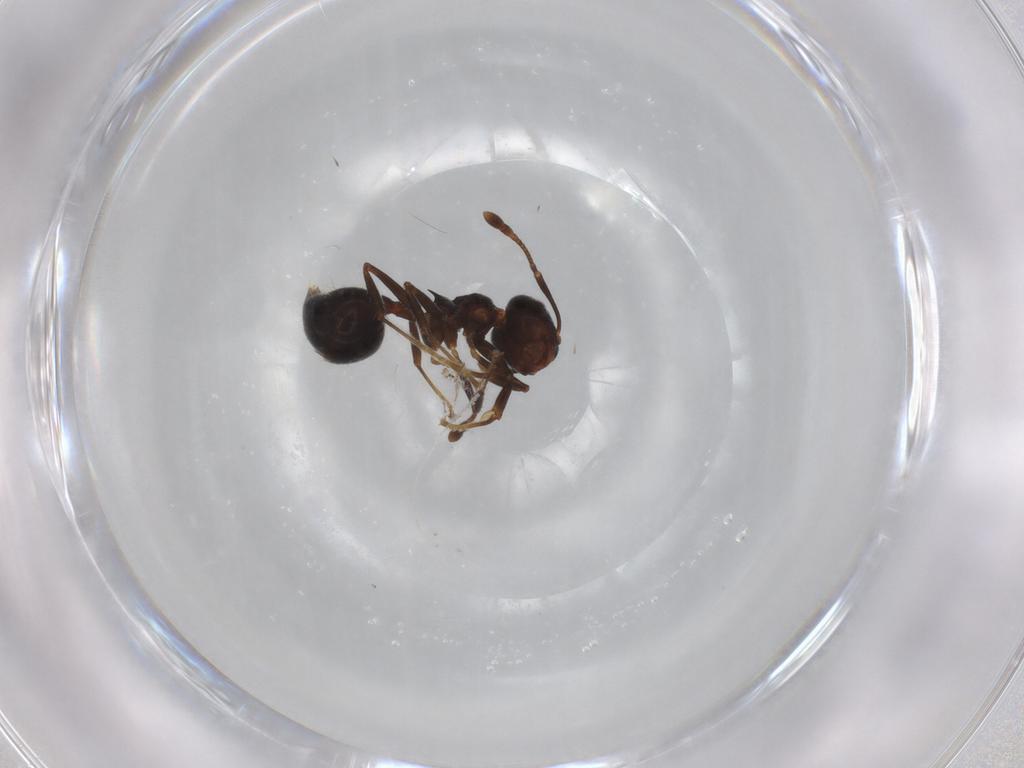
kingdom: Animalia
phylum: Arthropoda
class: Insecta
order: Hymenoptera
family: Formicidae
